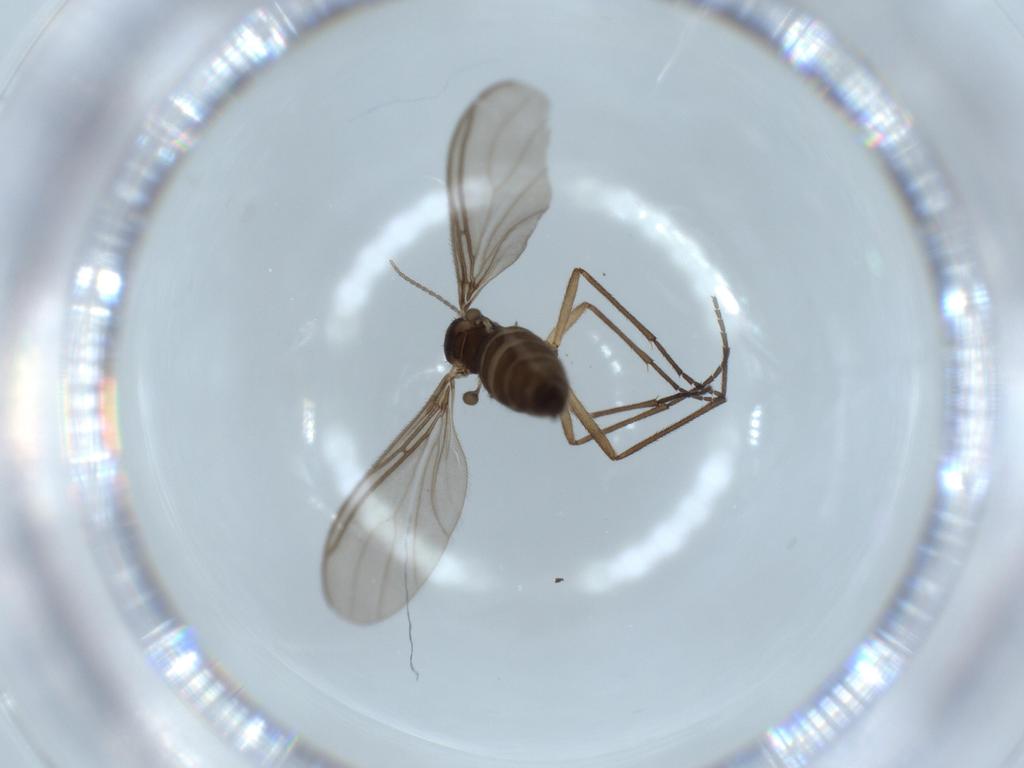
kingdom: Animalia
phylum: Arthropoda
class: Insecta
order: Diptera
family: Sciaridae
